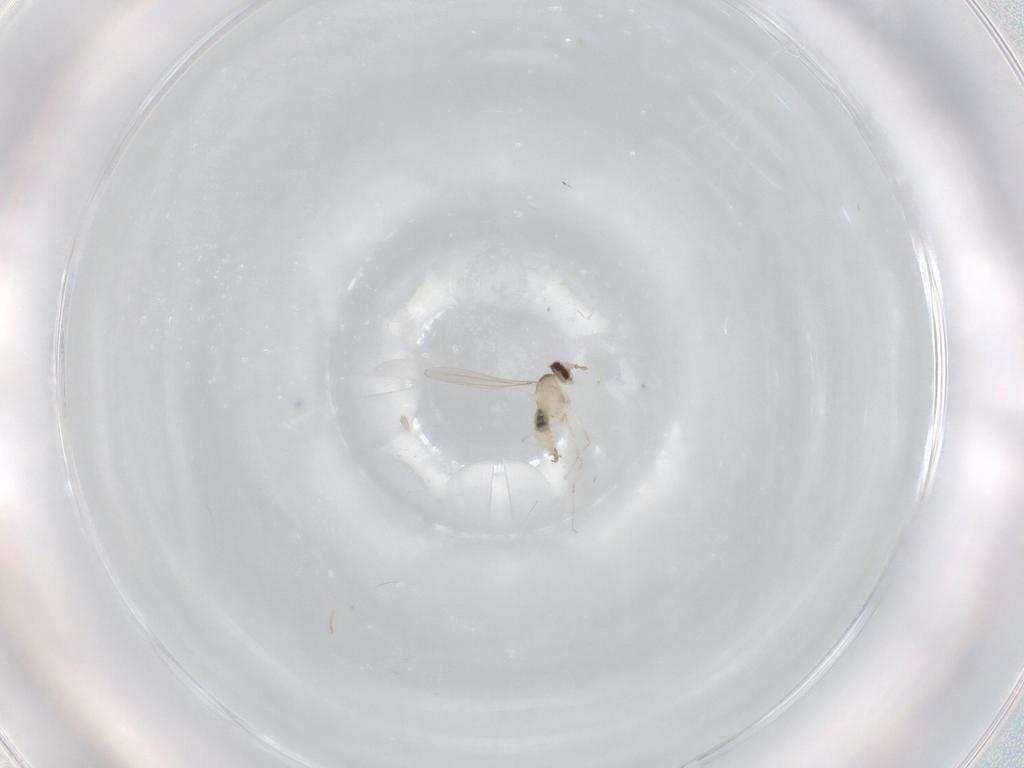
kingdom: Animalia
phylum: Arthropoda
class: Insecta
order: Diptera
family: Cecidomyiidae
